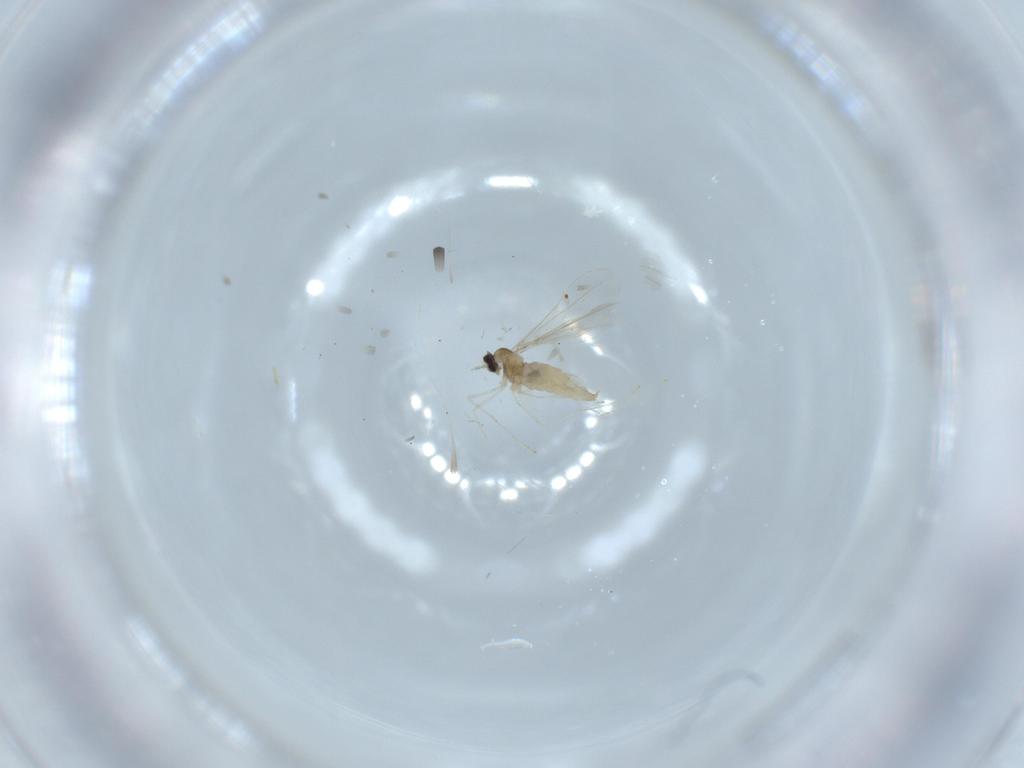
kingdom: Animalia
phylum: Arthropoda
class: Insecta
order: Diptera
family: Cecidomyiidae
